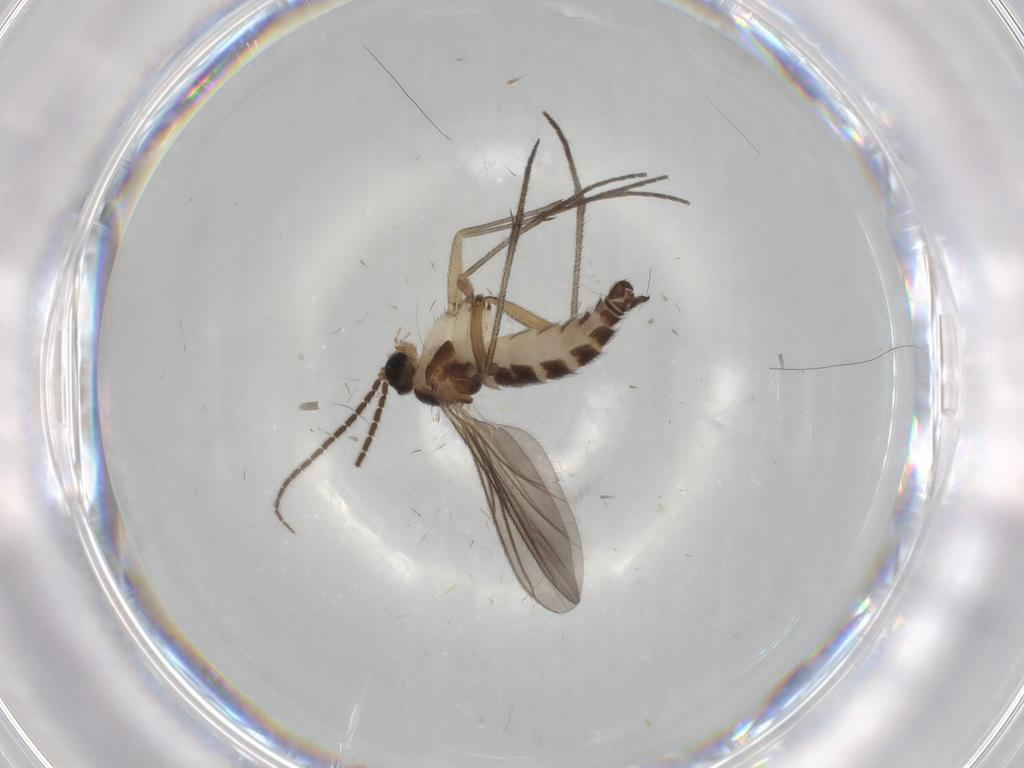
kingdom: Animalia
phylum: Arthropoda
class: Insecta
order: Diptera
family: Sciaridae
